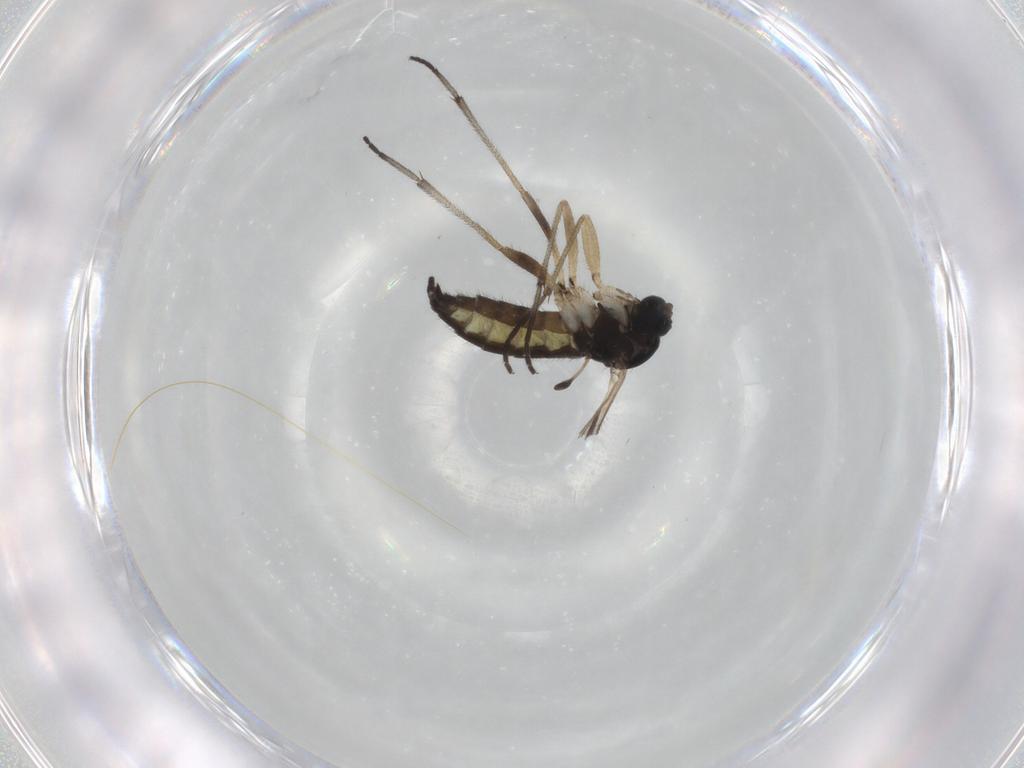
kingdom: Animalia
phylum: Arthropoda
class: Insecta
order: Diptera
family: Sciaridae
